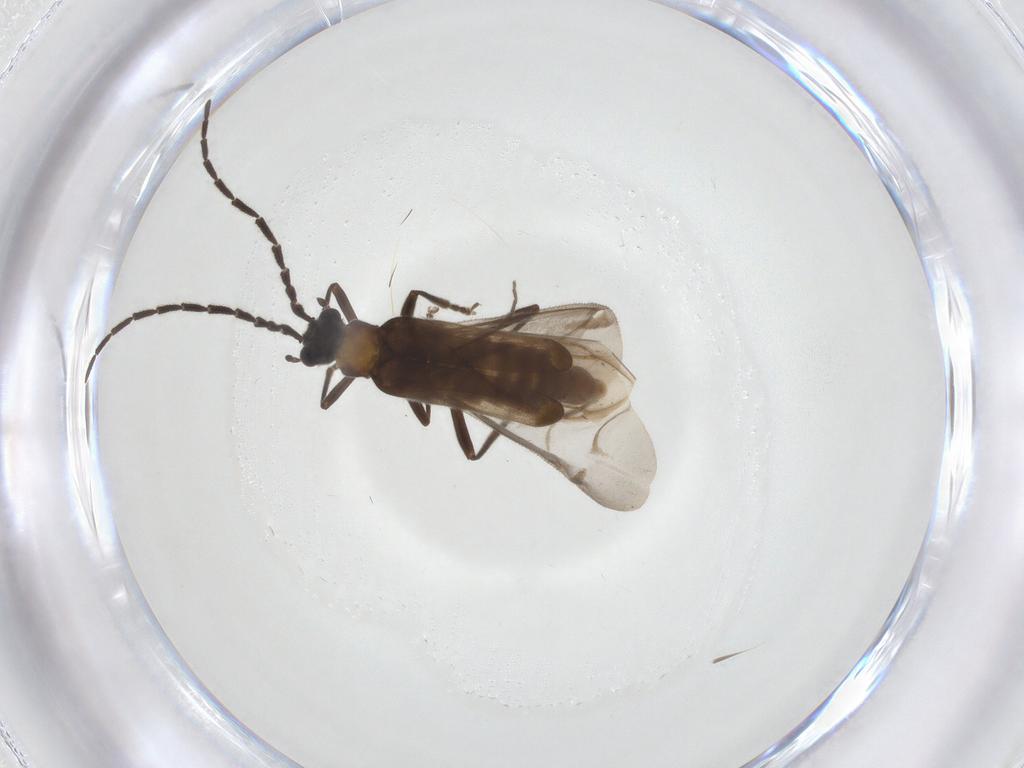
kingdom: Animalia
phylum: Arthropoda
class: Insecta
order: Coleoptera
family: Cantharidae
